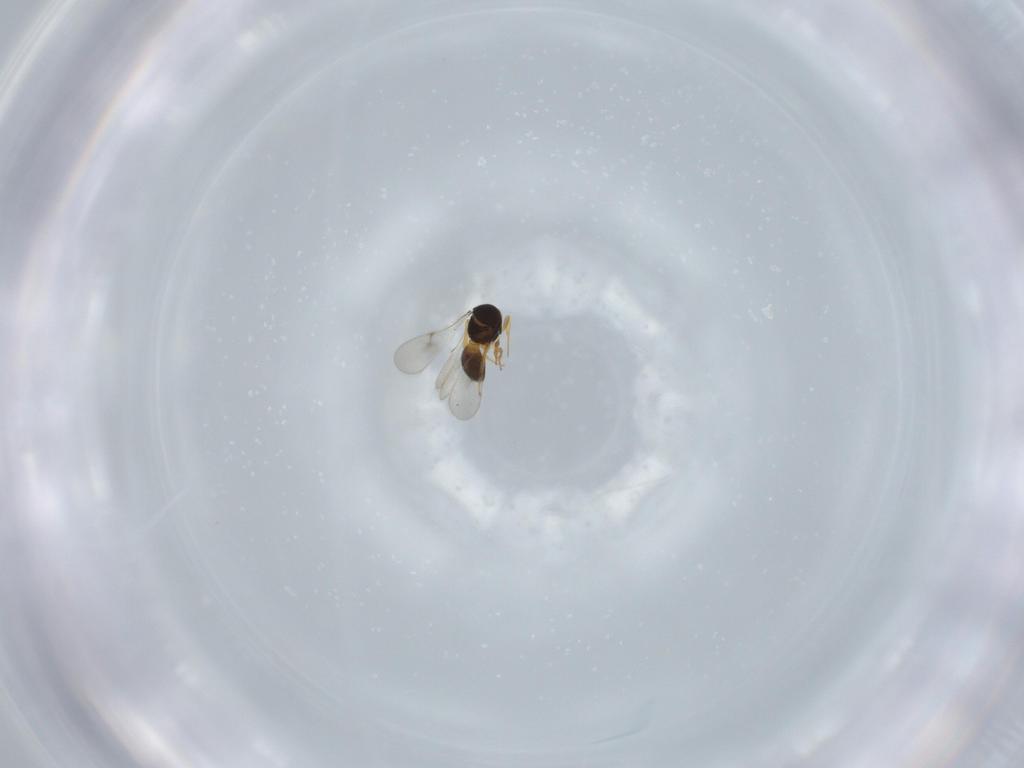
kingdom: Animalia
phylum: Arthropoda
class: Insecta
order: Hymenoptera
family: Scelionidae
